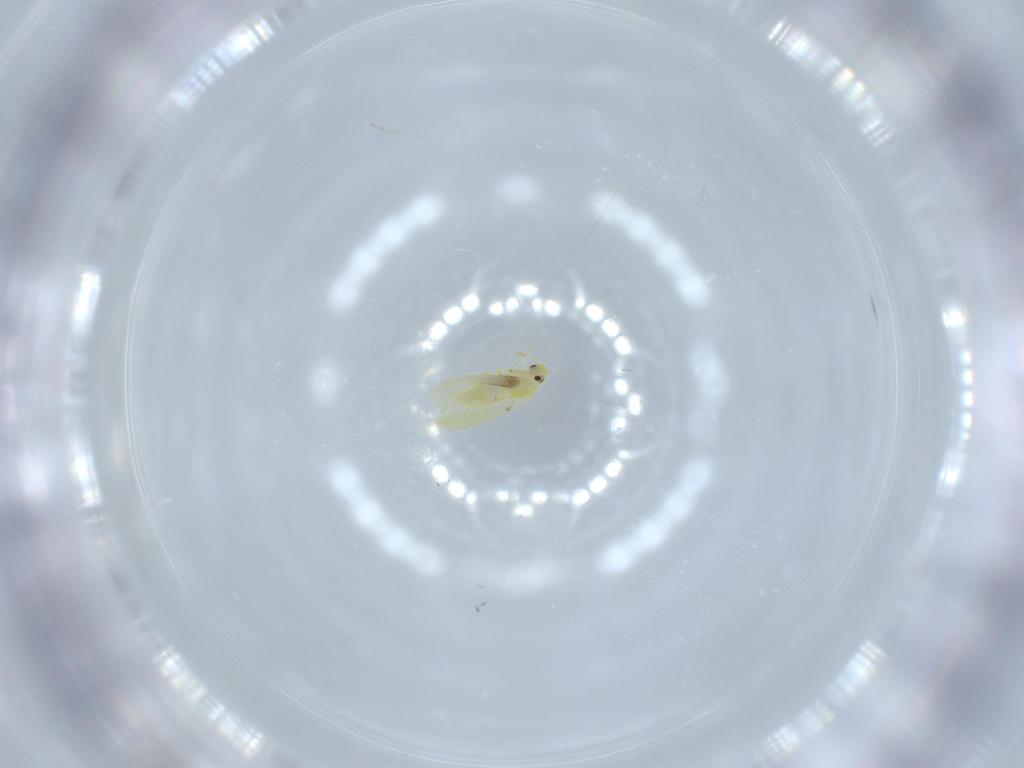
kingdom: Animalia
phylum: Arthropoda
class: Insecta
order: Hemiptera
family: Aleyrodidae
